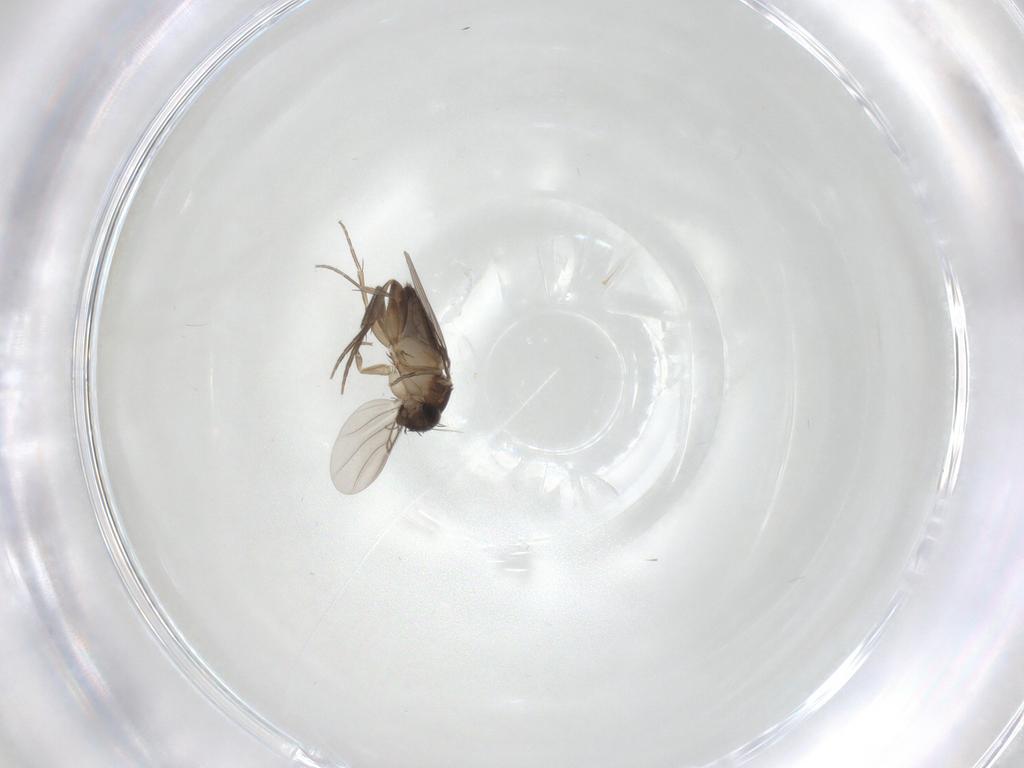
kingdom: Animalia
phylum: Arthropoda
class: Insecta
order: Diptera
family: Phoridae
